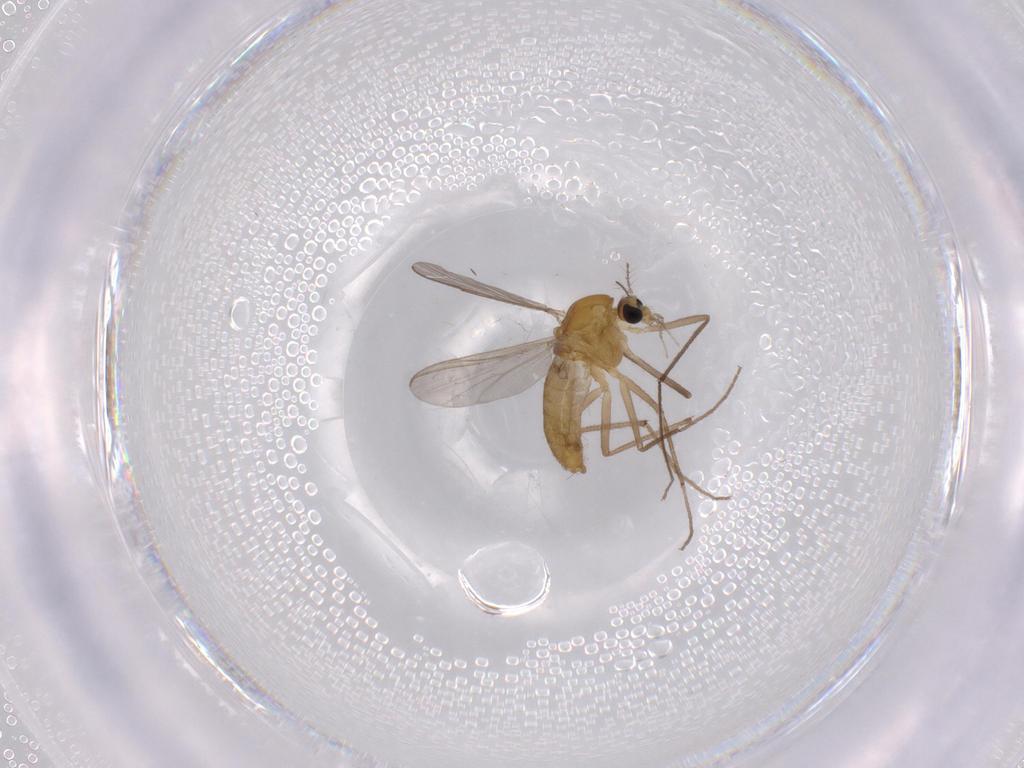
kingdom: Animalia
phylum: Arthropoda
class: Insecta
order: Diptera
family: Chironomidae
